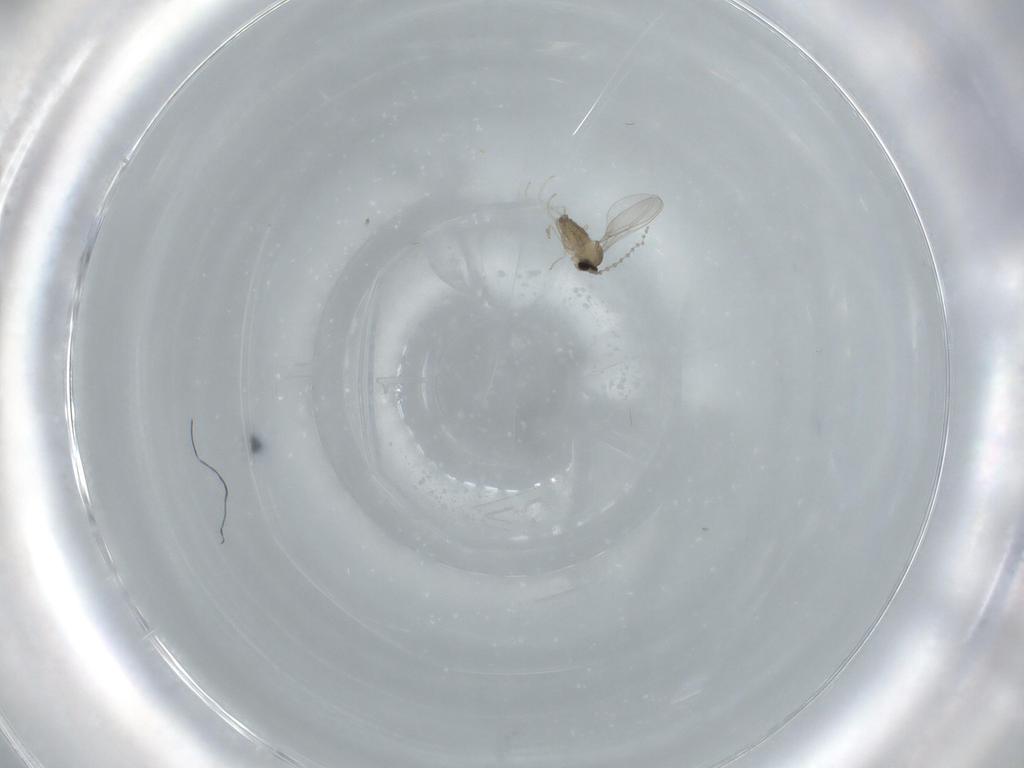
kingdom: Animalia
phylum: Arthropoda
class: Insecta
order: Diptera
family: Cecidomyiidae
